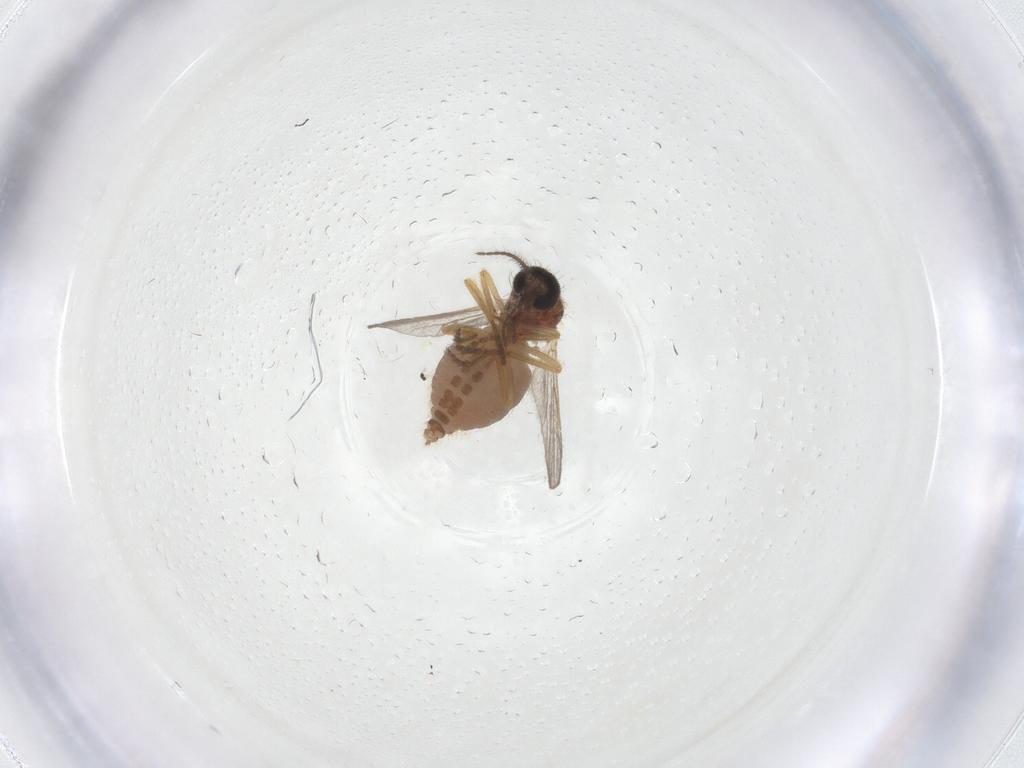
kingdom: Animalia
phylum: Arthropoda
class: Insecta
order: Diptera
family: Ceratopogonidae
